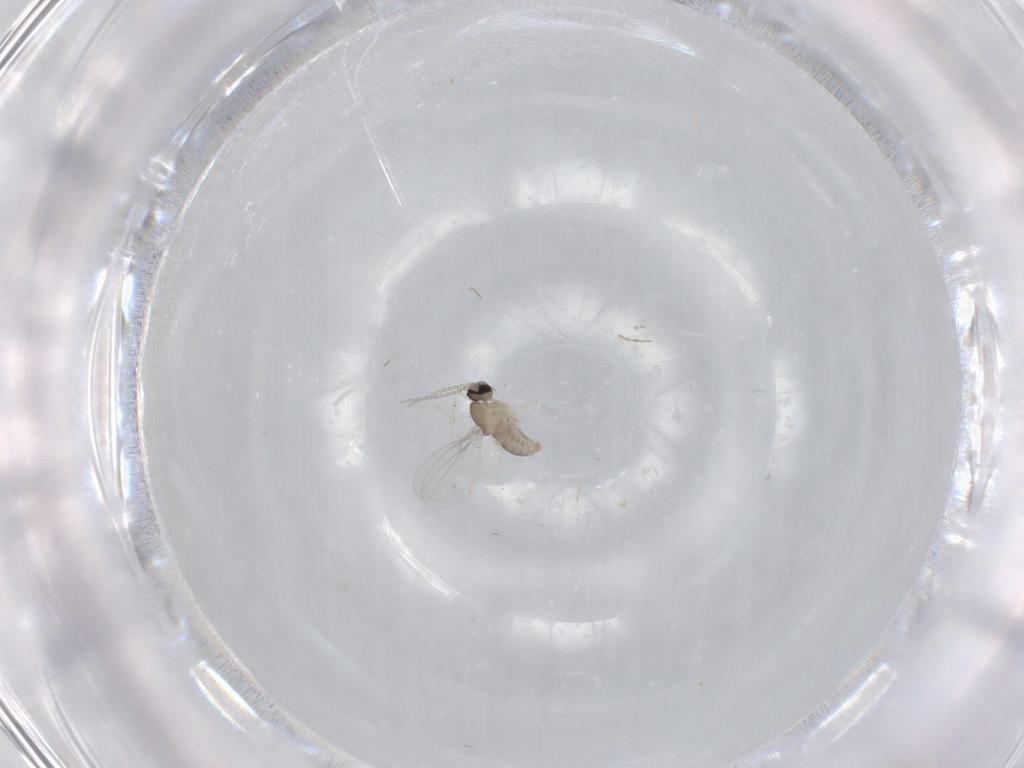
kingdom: Animalia
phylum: Arthropoda
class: Insecta
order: Diptera
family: Cecidomyiidae
